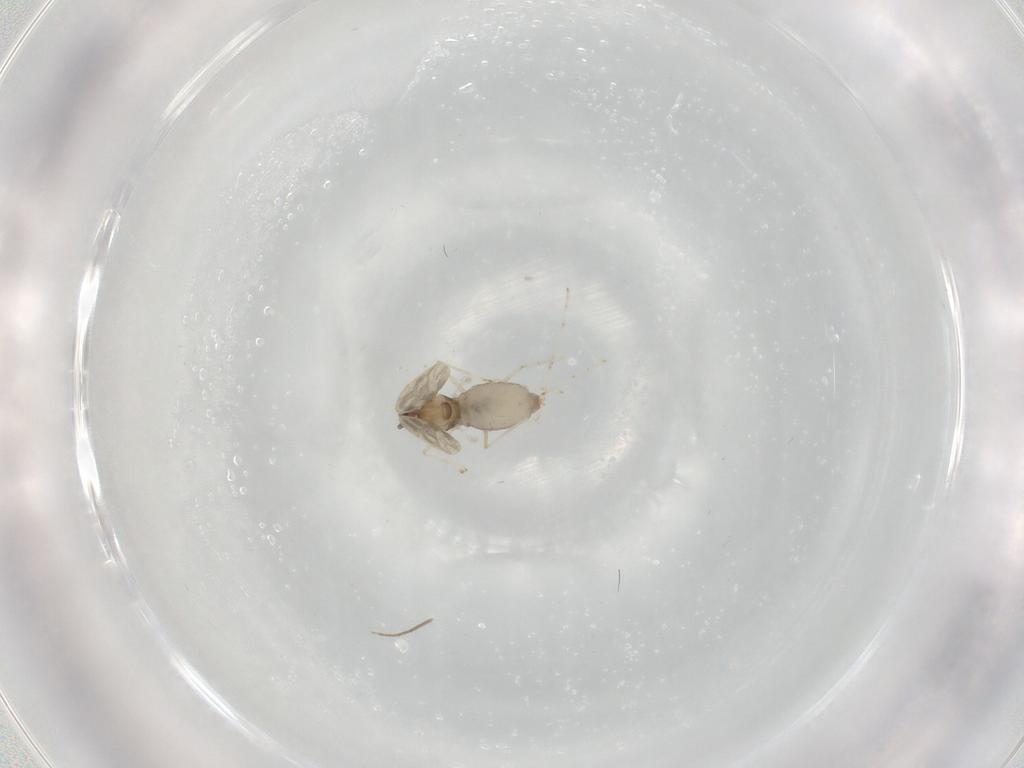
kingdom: Animalia
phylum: Arthropoda
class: Insecta
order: Diptera
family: Cecidomyiidae
